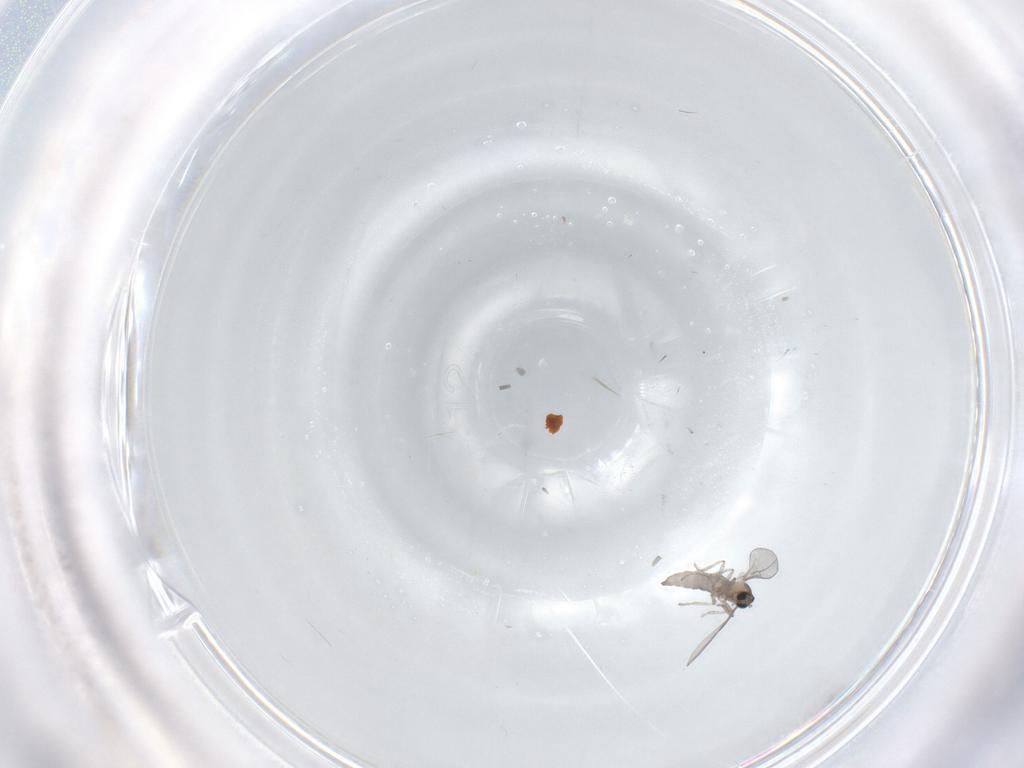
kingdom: Animalia
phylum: Arthropoda
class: Insecta
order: Diptera
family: Cecidomyiidae
